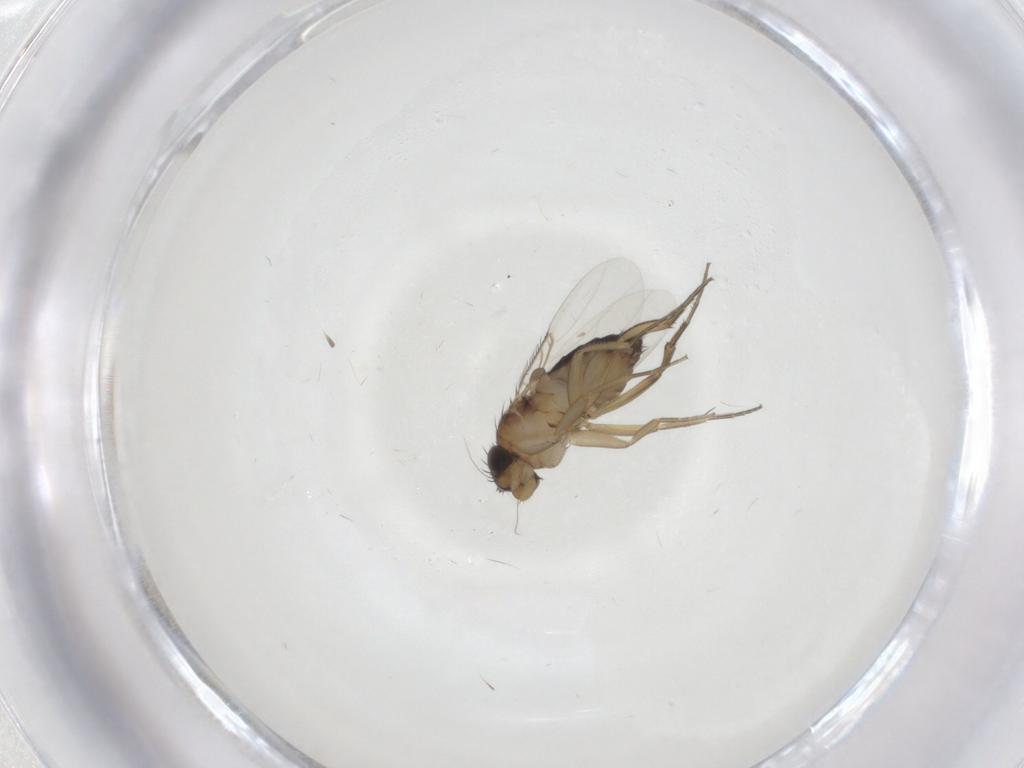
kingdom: Animalia
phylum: Arthropoda
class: Insecta
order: Diptera
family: Phoridae
